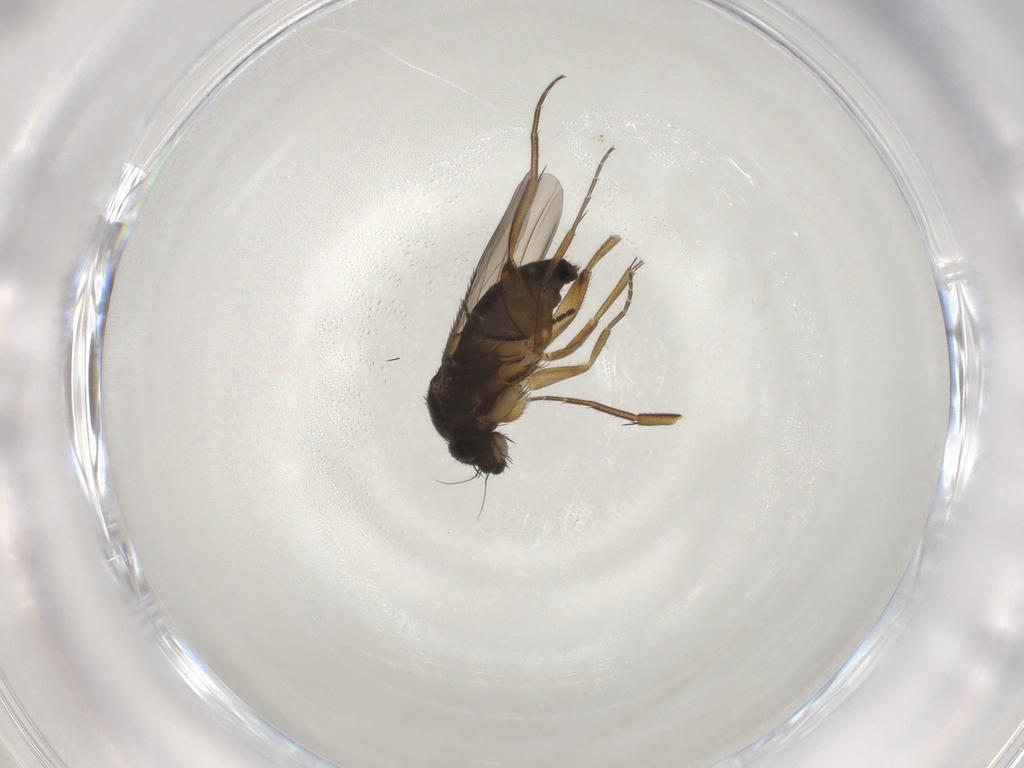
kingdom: Animalia
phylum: Arthropoda
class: Insecta
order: Diptera
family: Phoridae
